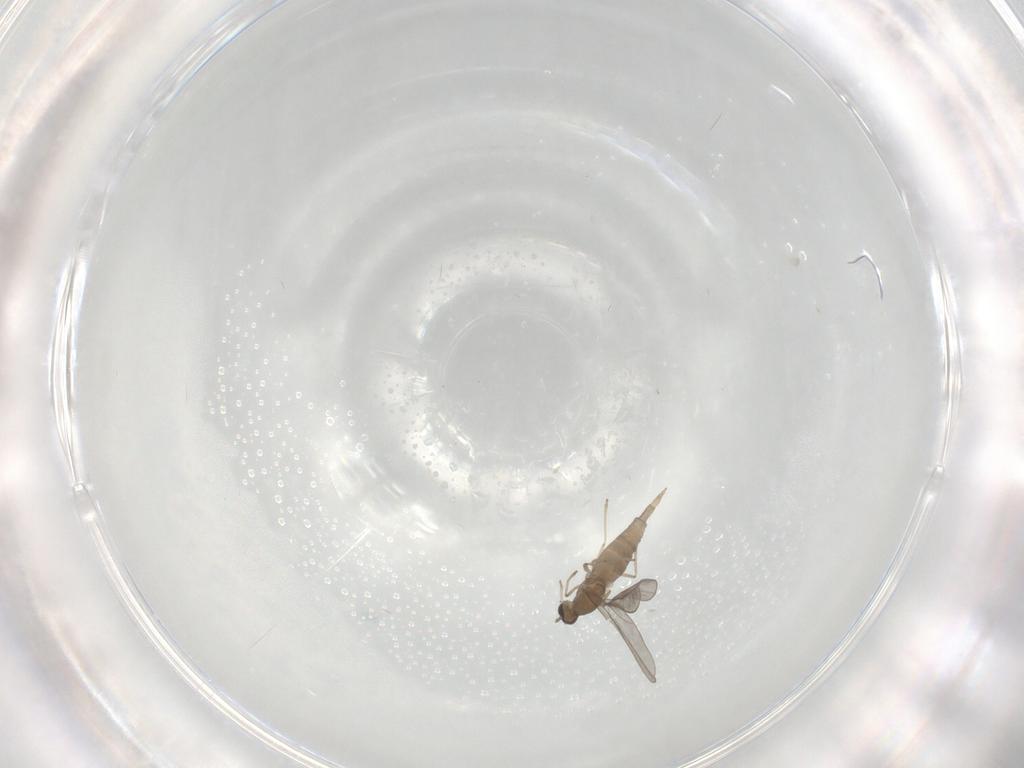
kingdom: Animalia
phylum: Arthropoda
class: Insecta
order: Diptera
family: Cecidomyiidae
